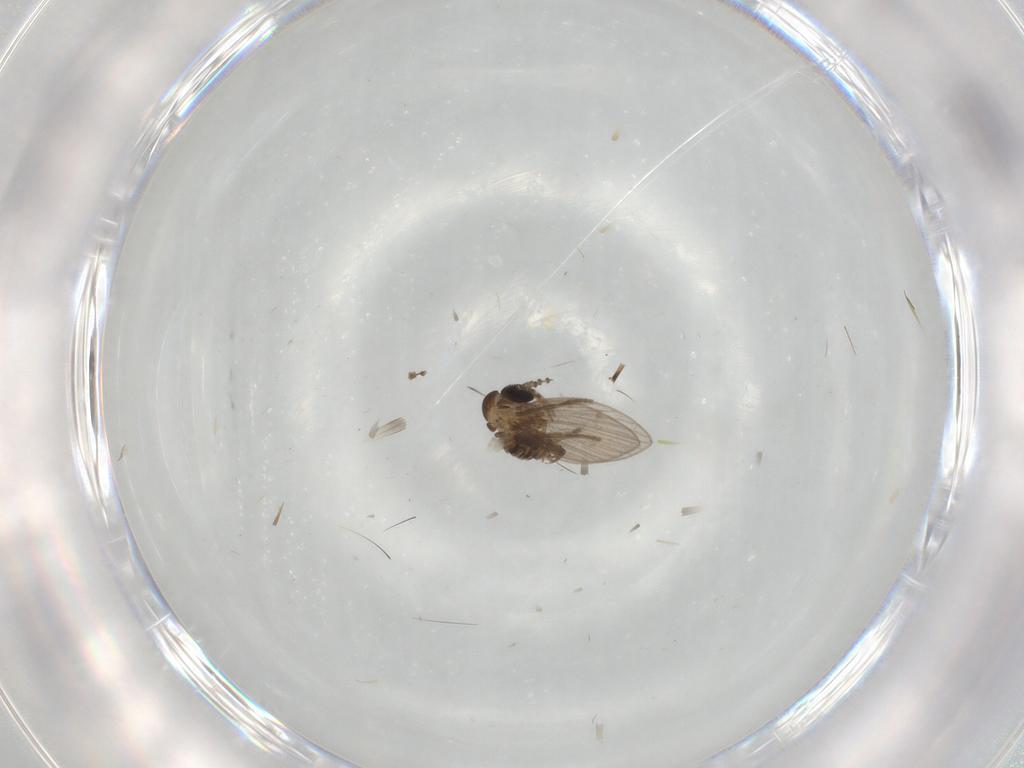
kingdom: Animalia
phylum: Arthropoda
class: Insecta
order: Diptera
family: Psychodidae
